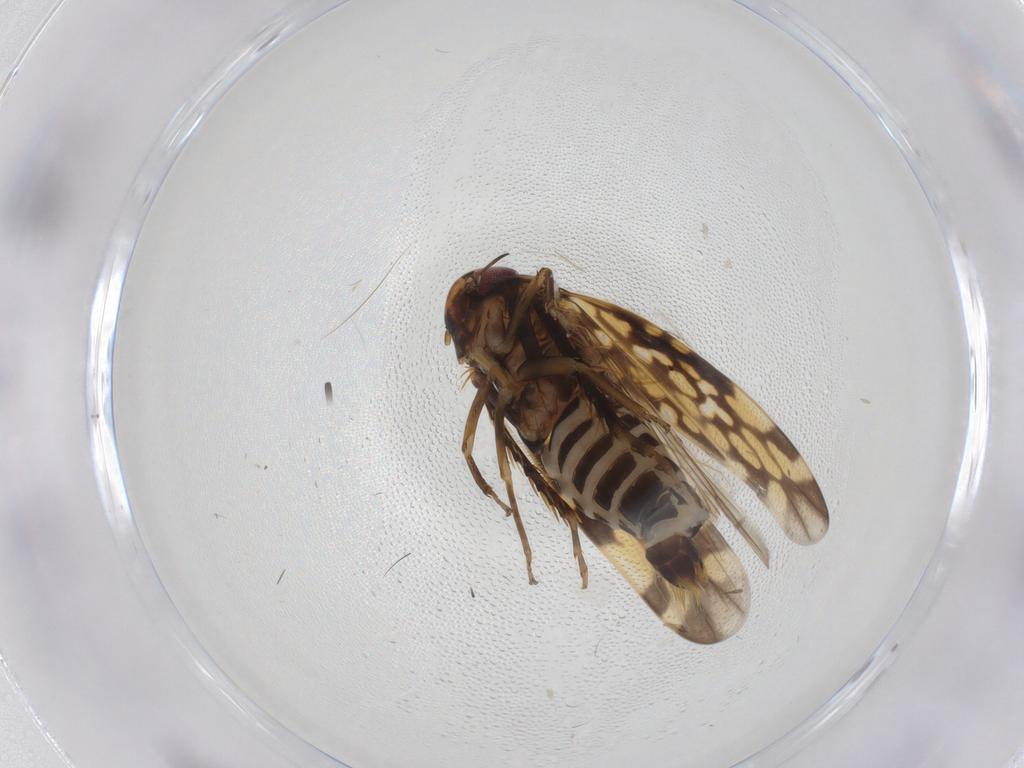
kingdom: Animalia
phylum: Arthropoda
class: Insecta
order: Hemiptera
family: Cicadellidae
